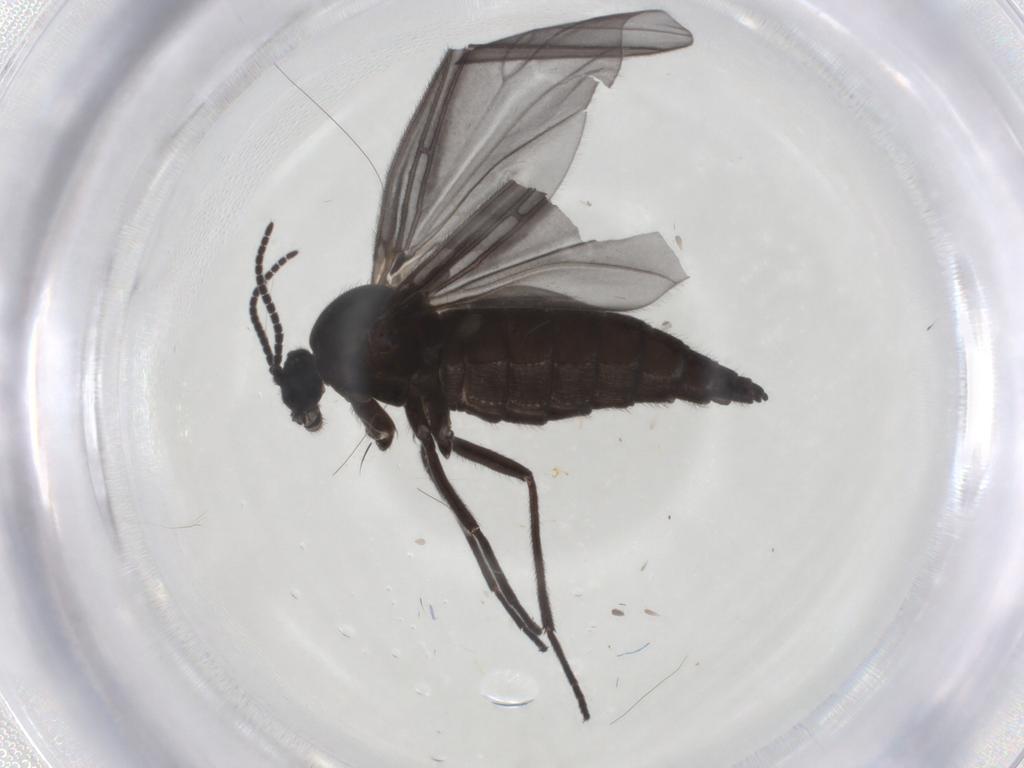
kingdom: Animalia
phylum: Arthropoda
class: Insecta
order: Diptera
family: Sciaridae
